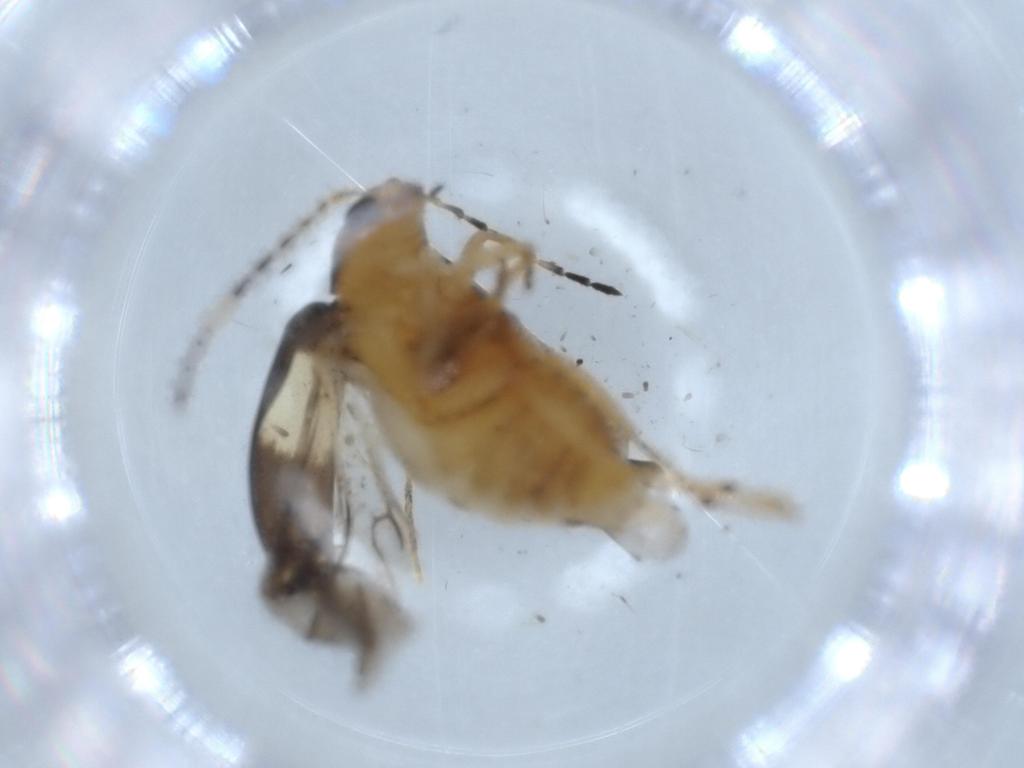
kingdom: Animalia
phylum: Arthropoda
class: Insecta
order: Coleoptera
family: Chrysomelidae
